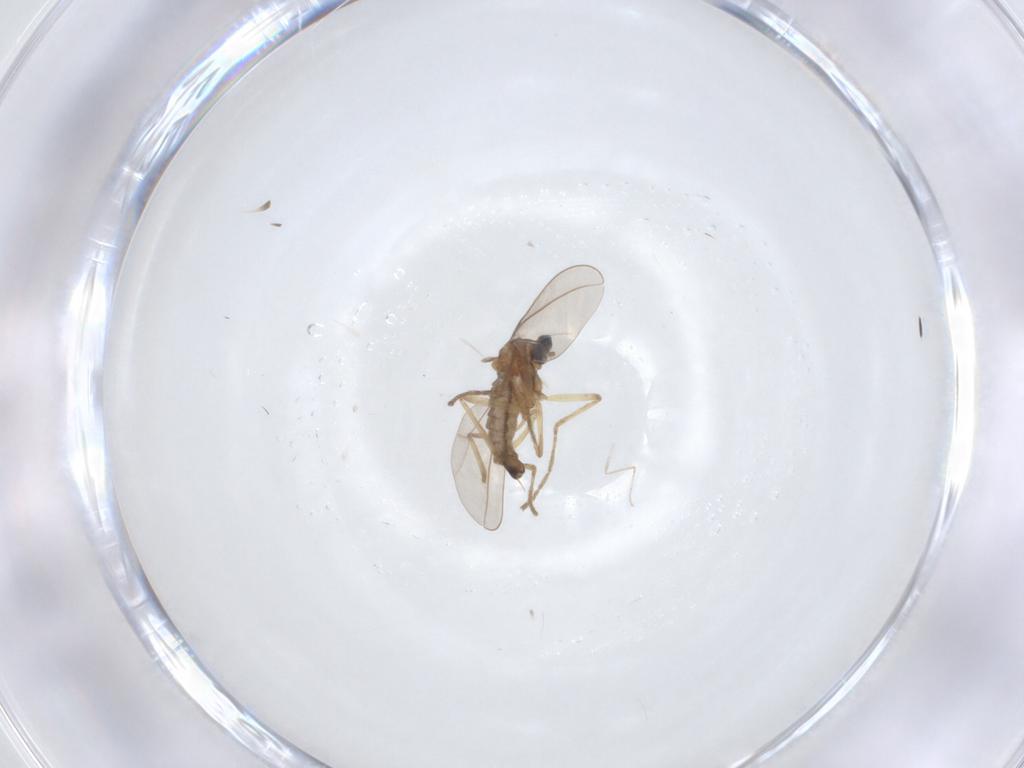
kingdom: Animalia
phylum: Arthropoda
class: Insecta
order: Diptera
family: Cecidomyiidae
